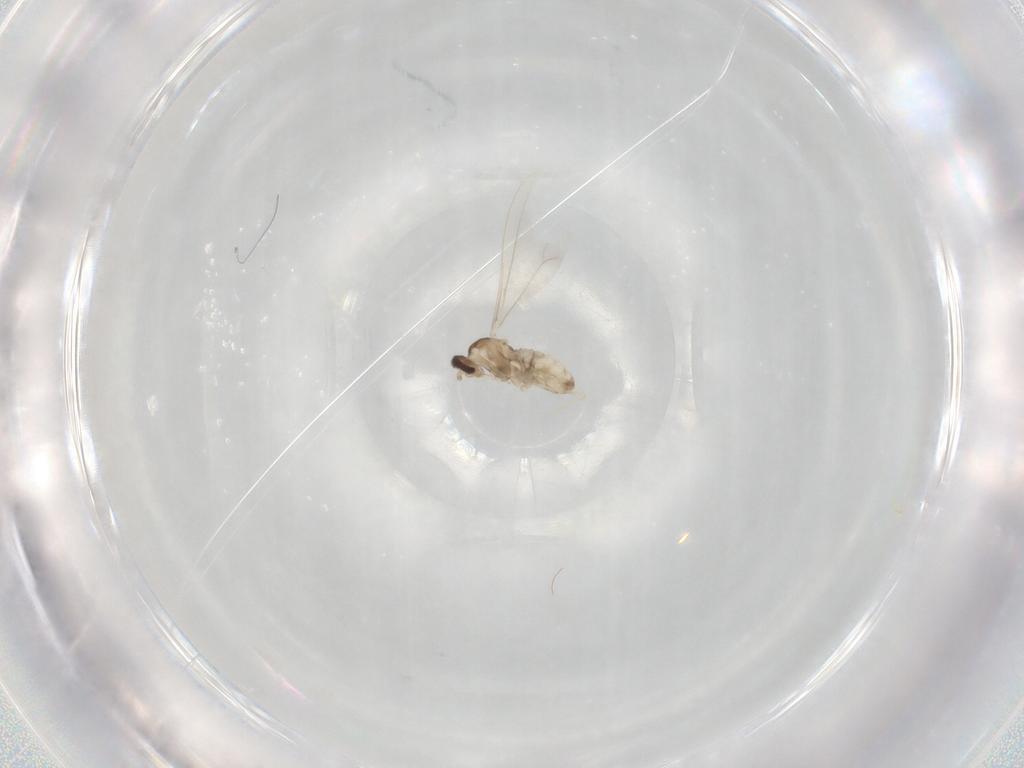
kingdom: Animalia
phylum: Arthropoda
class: Insecta
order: Diptera
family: Cecidomyiidae
